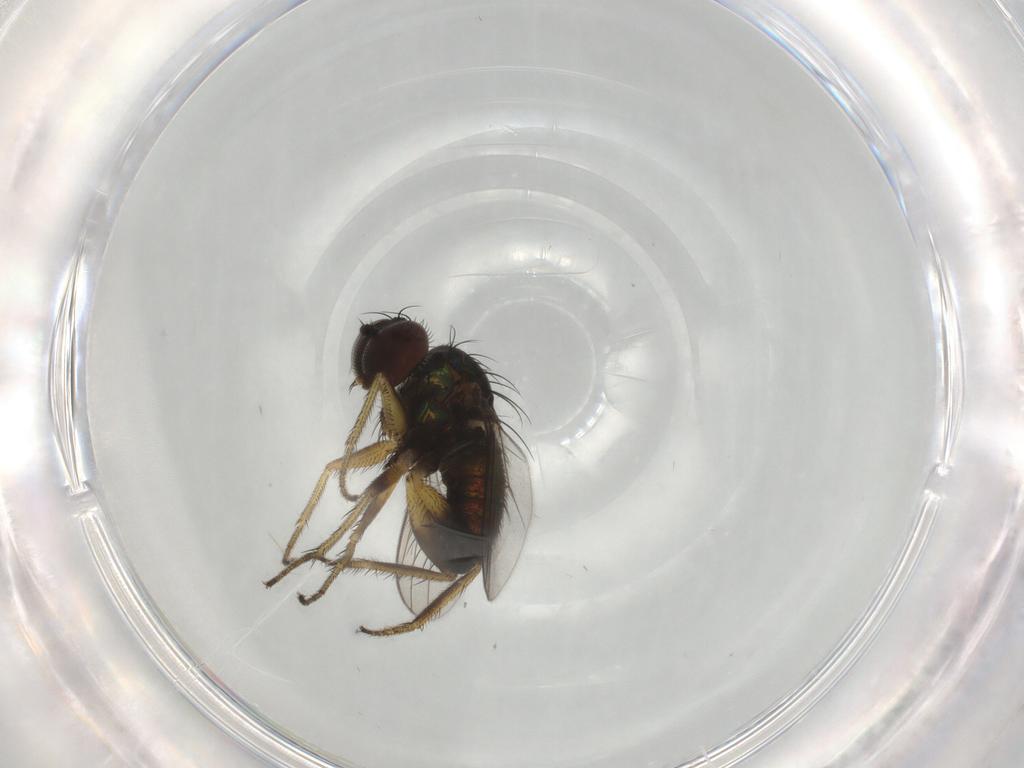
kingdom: Animalia
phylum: Arthropoda
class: Insecta
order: Diptera
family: Dolichopodidae
